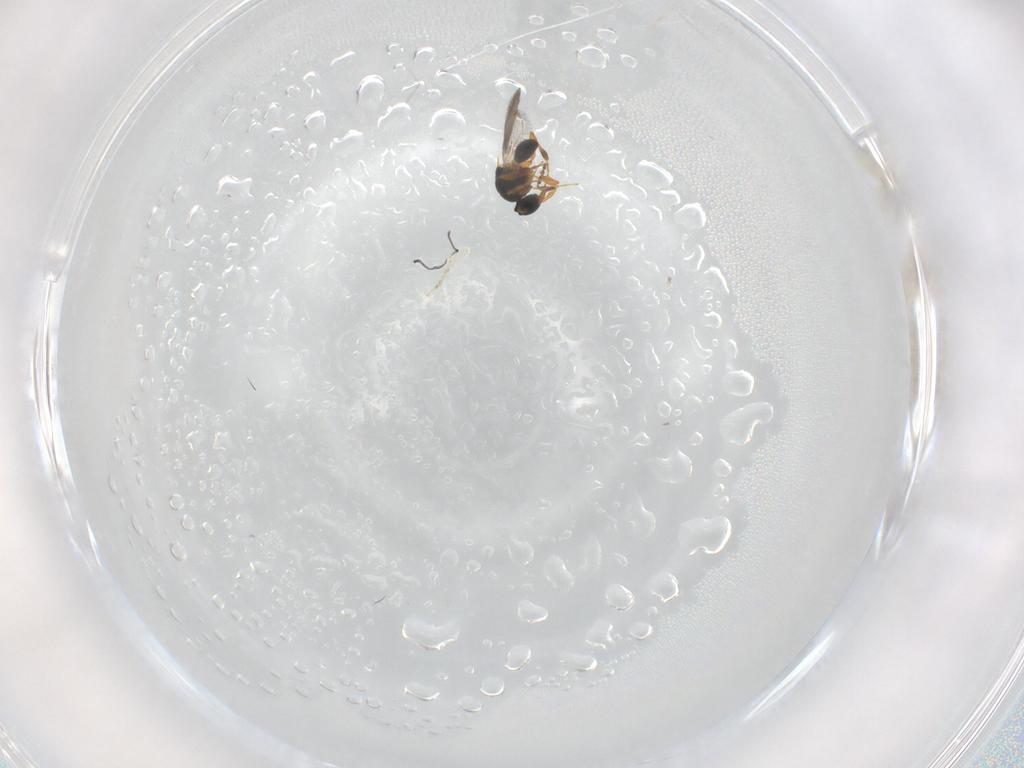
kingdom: Animalia
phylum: Arthropoda
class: Insecta
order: Hymenoptera
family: Platygastridae
